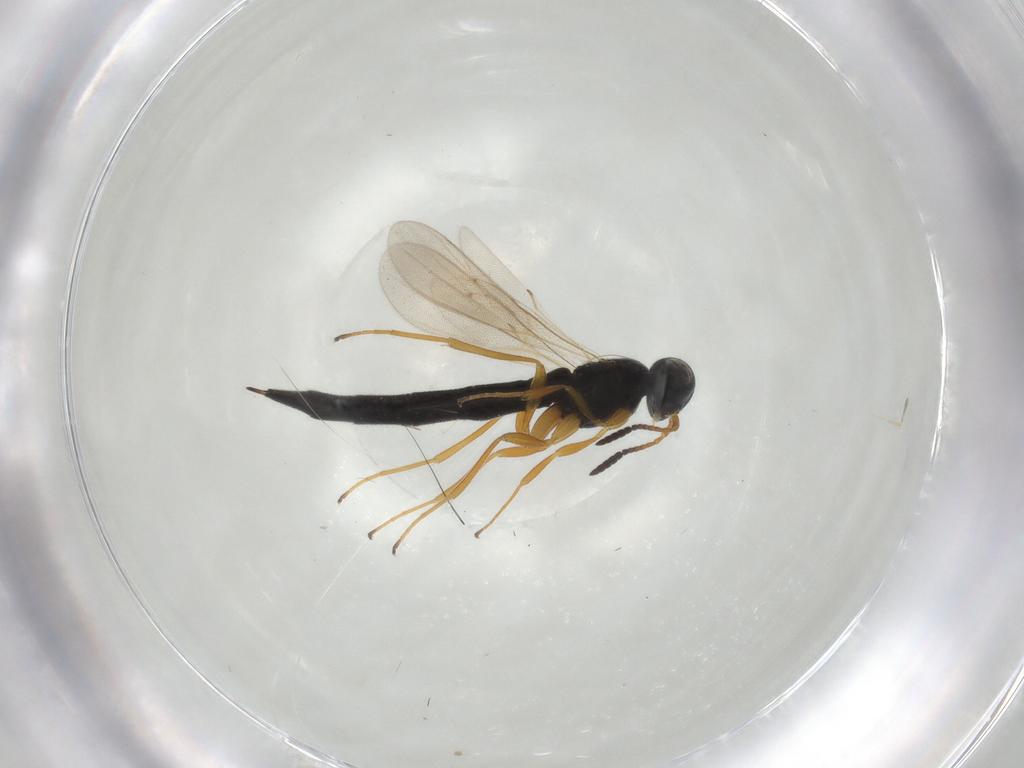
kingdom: Animalia
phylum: Arthropoda
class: Insecta
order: Hymenoptera
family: Scelionidae
